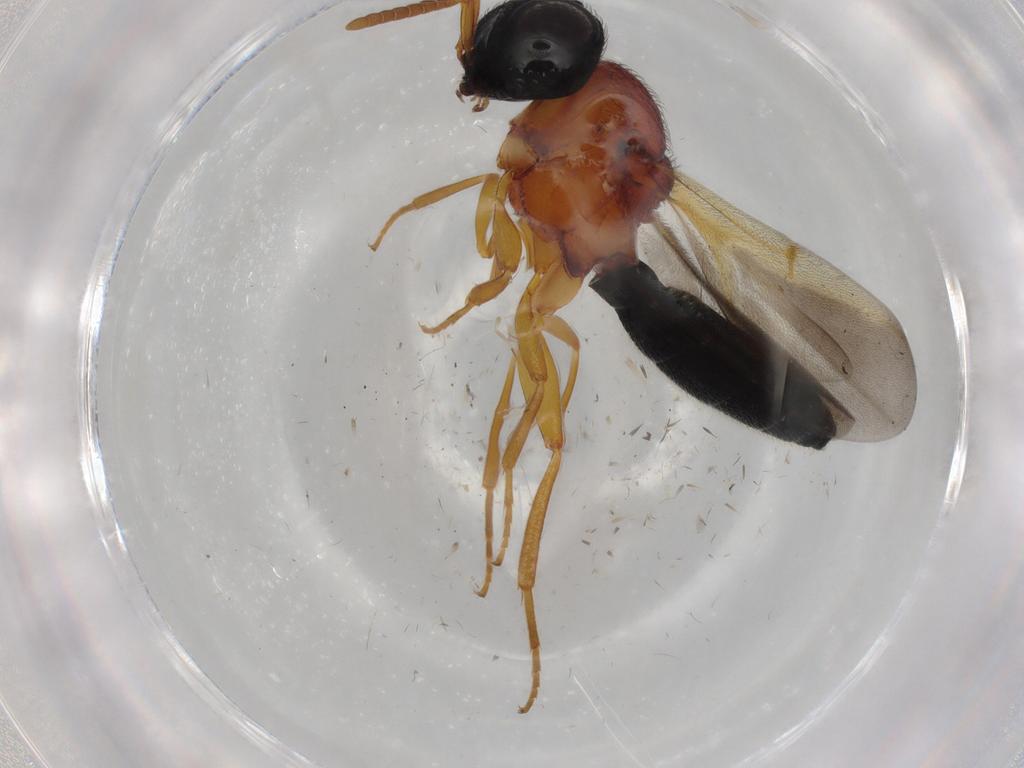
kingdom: Animalia
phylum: Arthropoda
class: Insecta
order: Hymenoptera
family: Scelionidae
